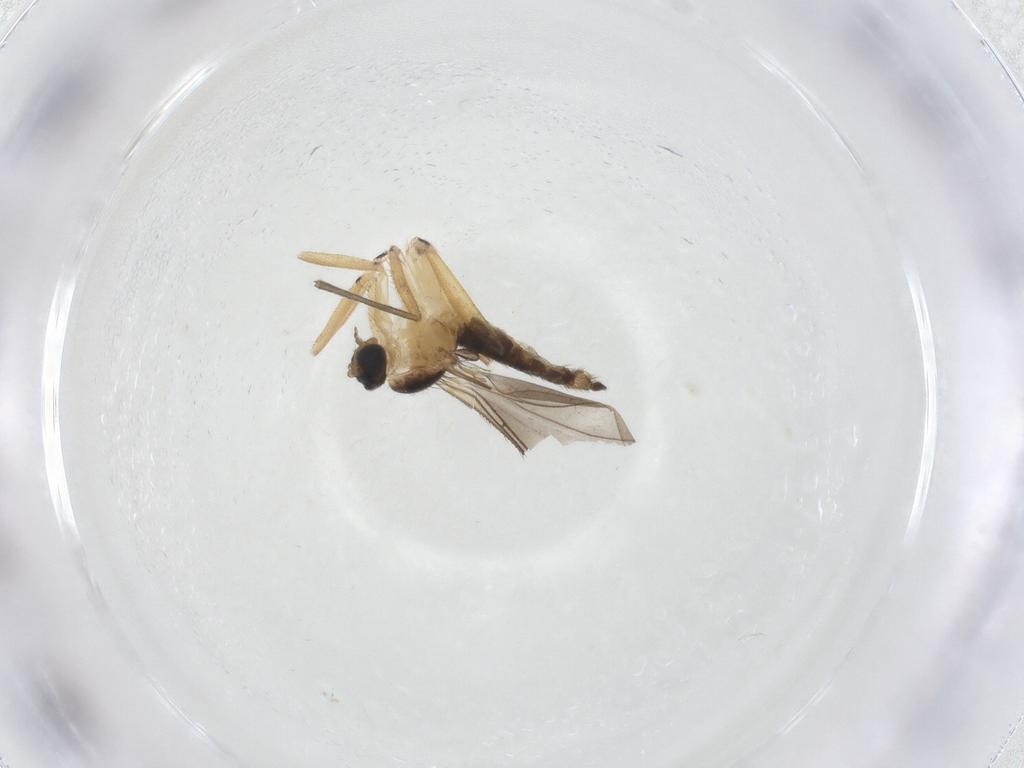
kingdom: Animalia
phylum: Arthropoda
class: Insecta
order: Diptera
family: Sciaridae
